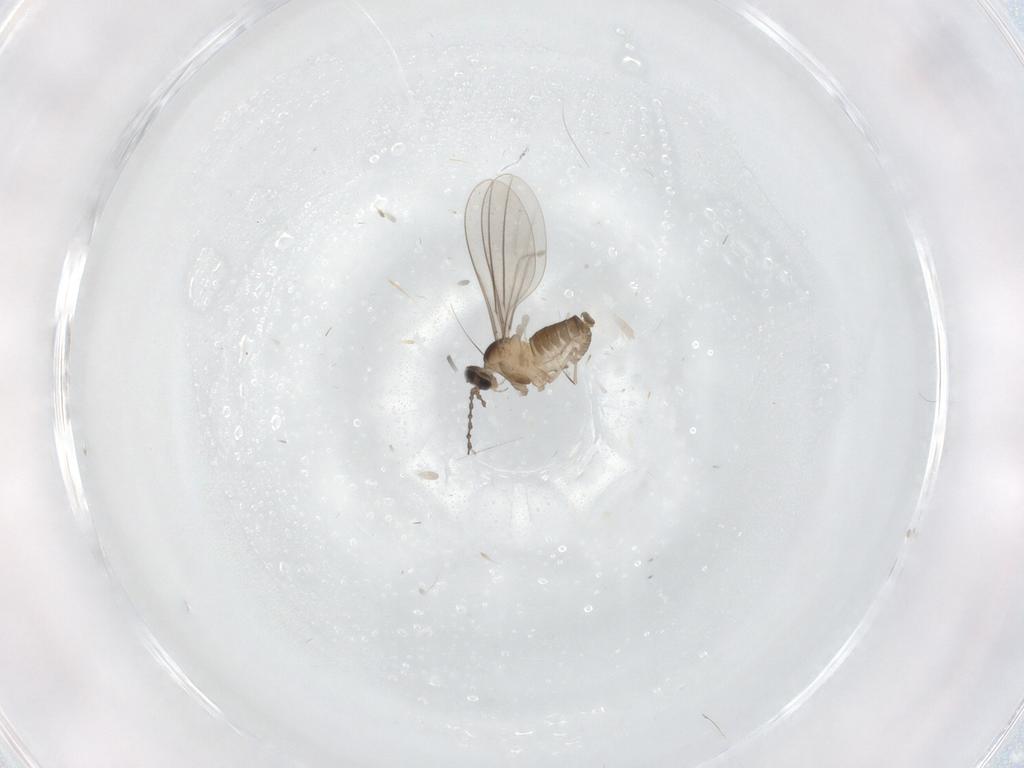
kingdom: Animalia
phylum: Arthropoda
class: Insecta
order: Diptera
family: Cecidomyiidae
